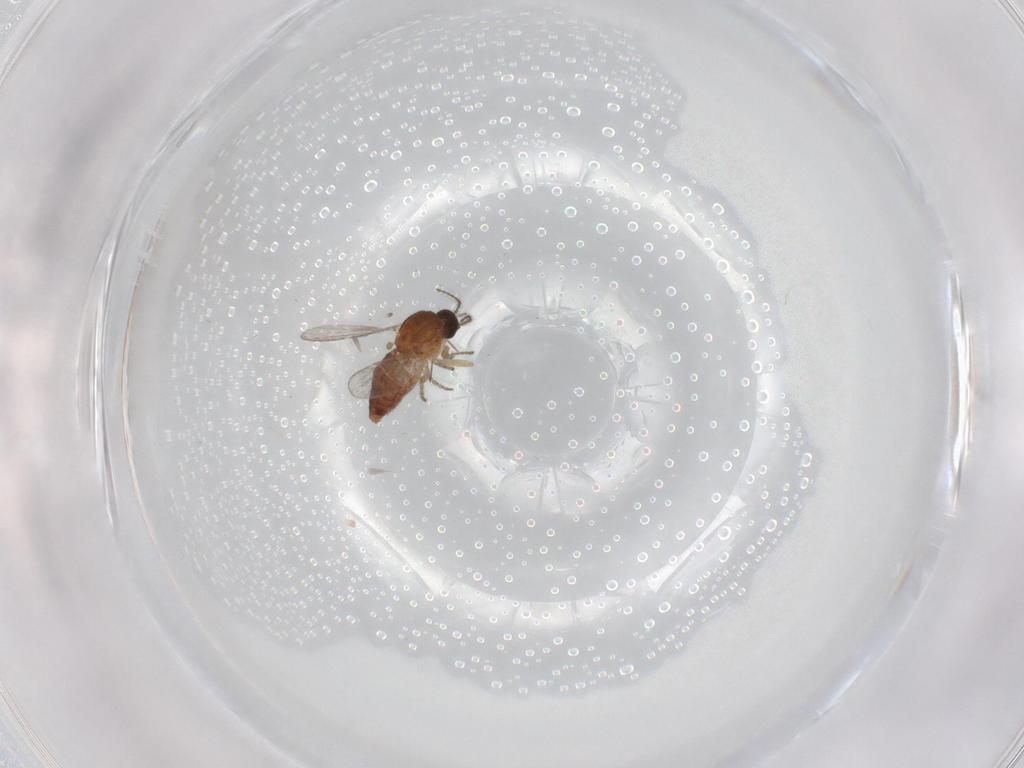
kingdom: Animalia
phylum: Arthropoda
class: Insecta
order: Diptera
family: Ceratopogonidae
